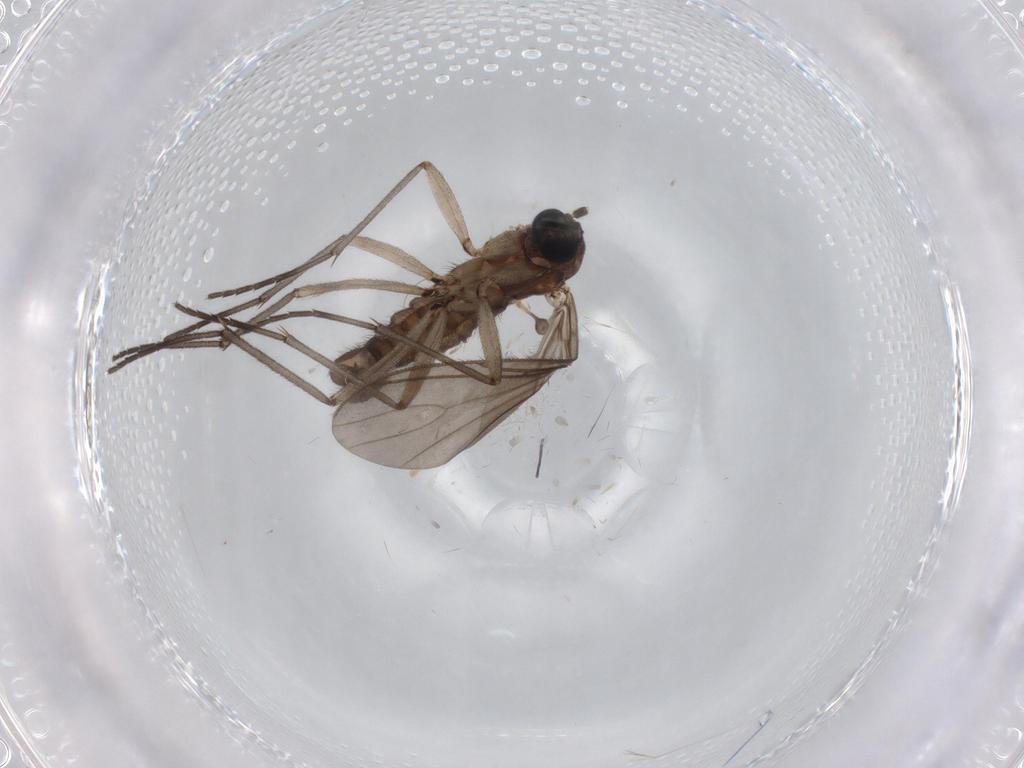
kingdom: Animalia
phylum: Arthropoda
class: Insecta
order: Diptera
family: Sciaridae
